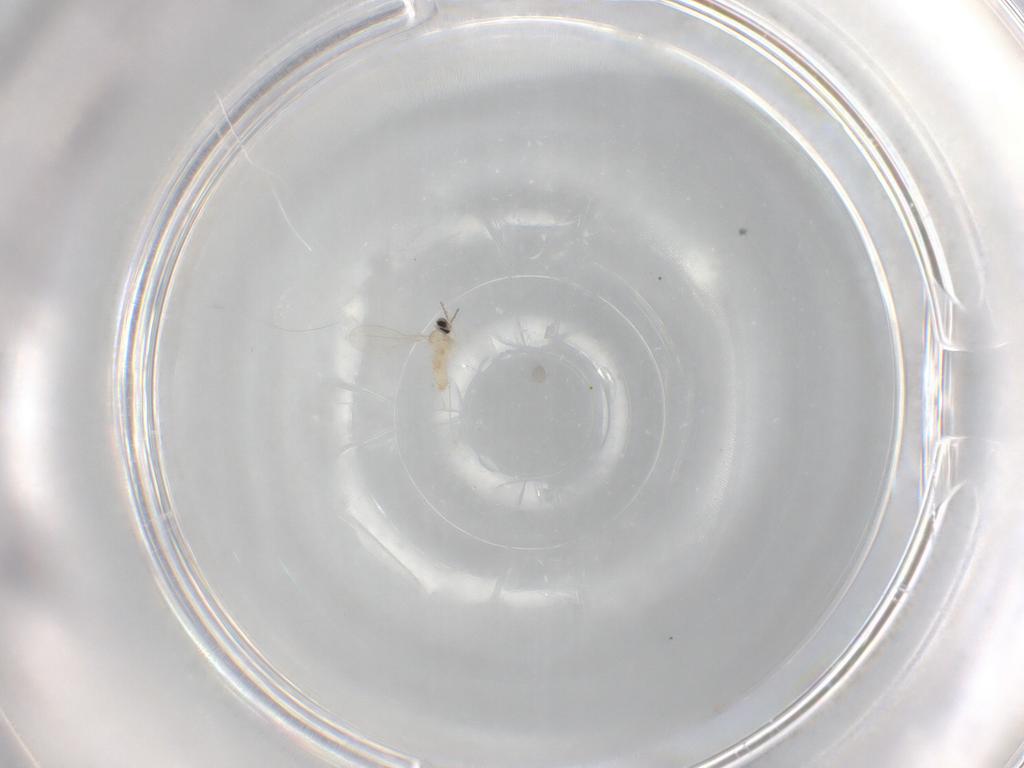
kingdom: Animalia
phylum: Arthropoda
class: Insecta
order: Diptera
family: Cecidomyiidae
